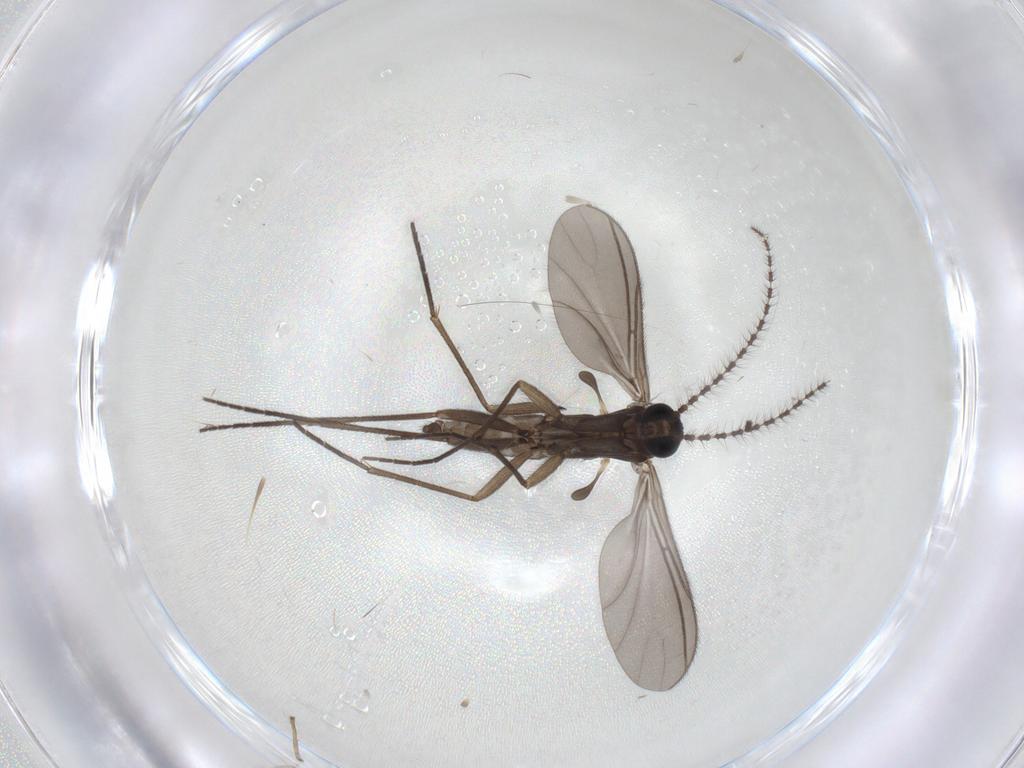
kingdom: Animalia
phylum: Arthropoda
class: Insecta
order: Diptera
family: Sciaridae
